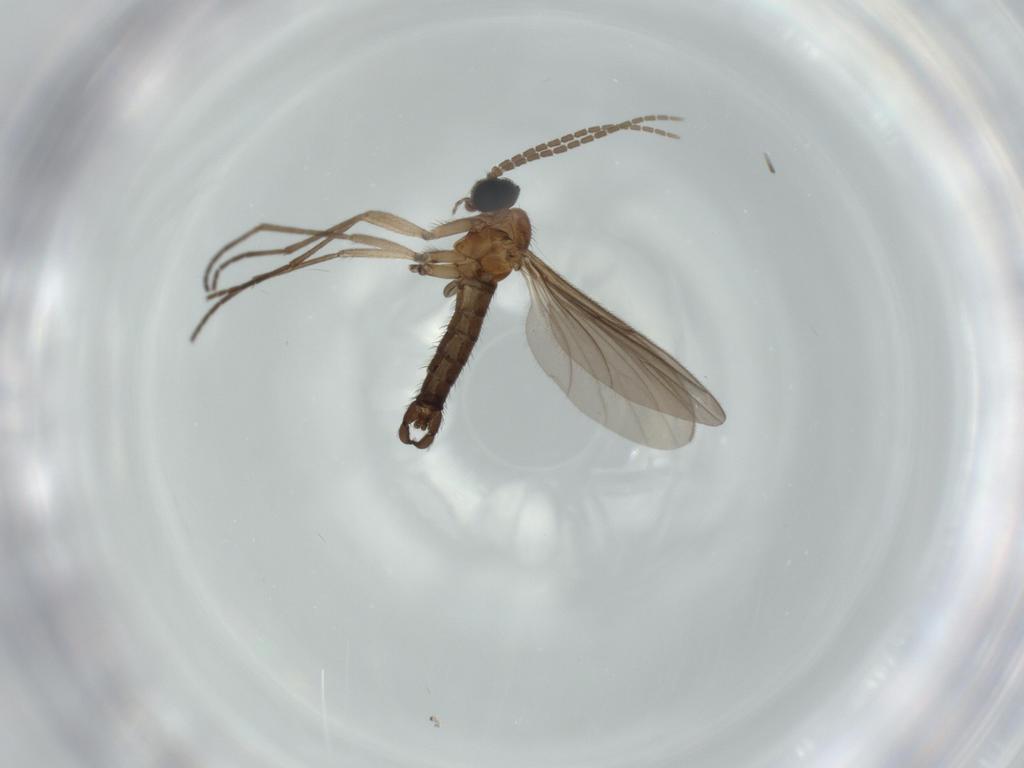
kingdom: Animalia
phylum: Arthropoda
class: Insecta
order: Diptera
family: Sciaridae
